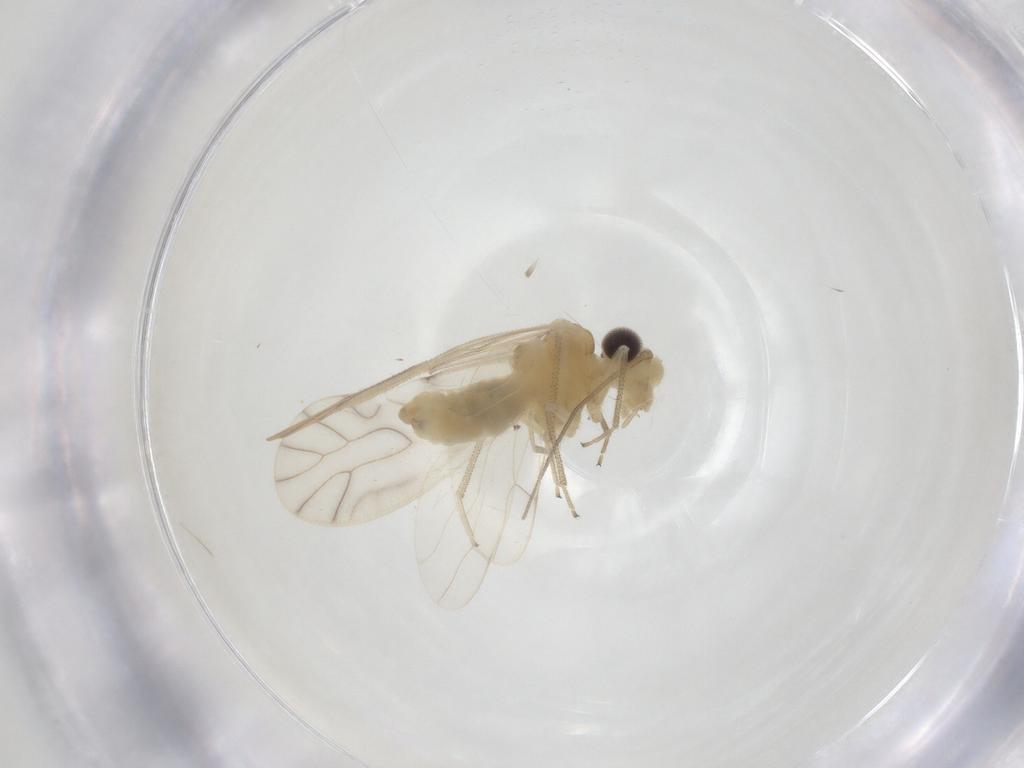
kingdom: Animalia
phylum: Arthropoda
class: Insecta
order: Psocodea
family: Caeciliusidae
